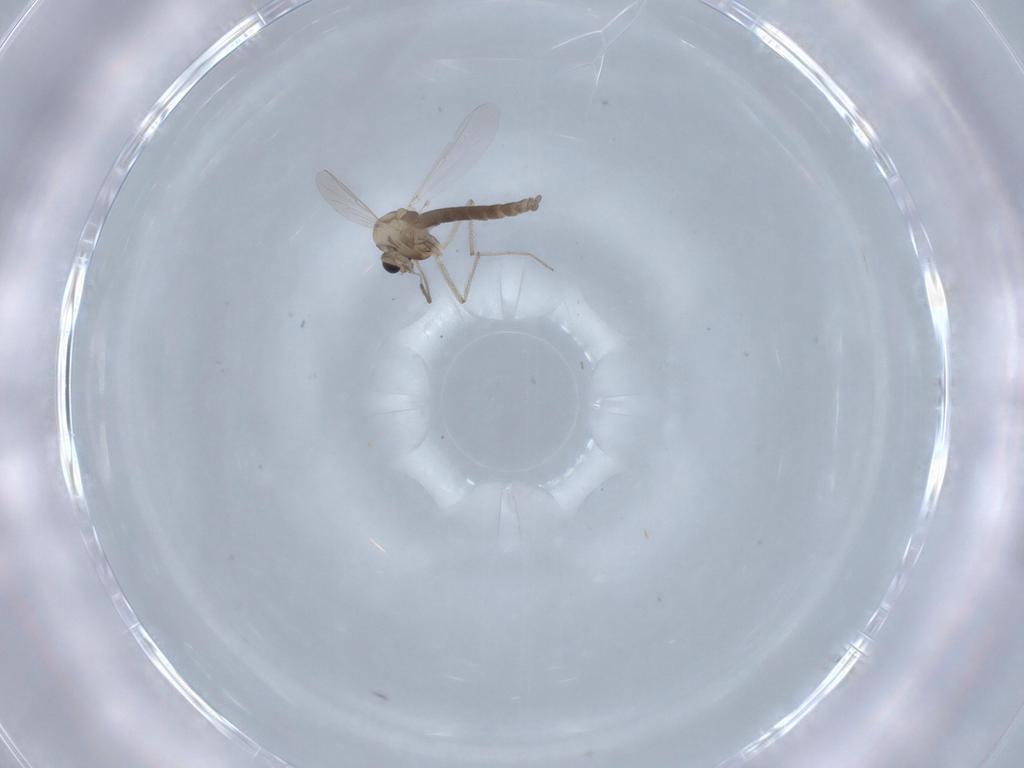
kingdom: Animalia
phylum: Arthropoda
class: Insecta
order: Diptera
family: Chironomidae
